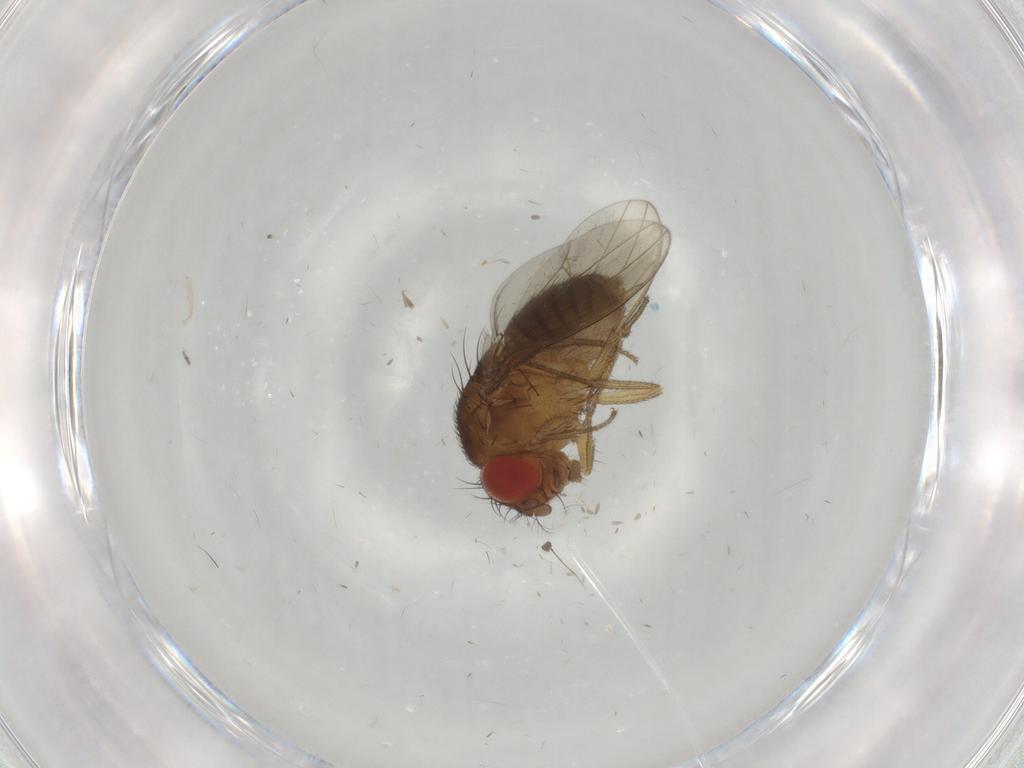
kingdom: Animalia
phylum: Arthropoda
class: Insecta
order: Diptera
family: Drosophilidae
